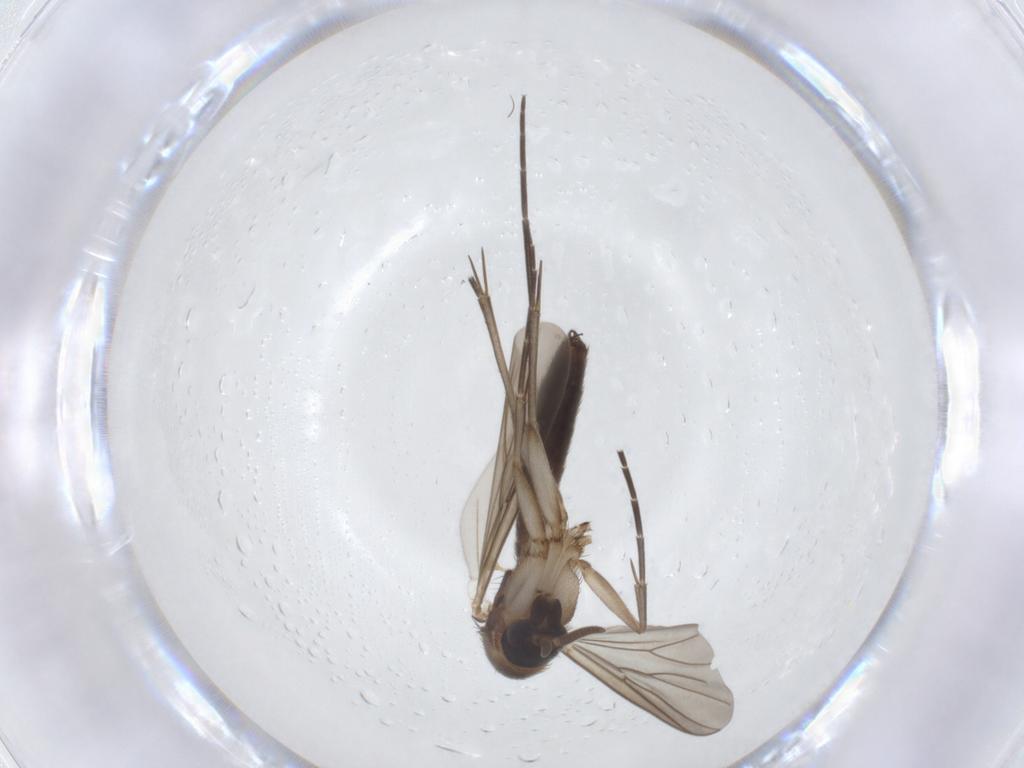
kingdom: Animalia
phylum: Arthropoda
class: Insecta
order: Diptera
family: Mycetophilidae
